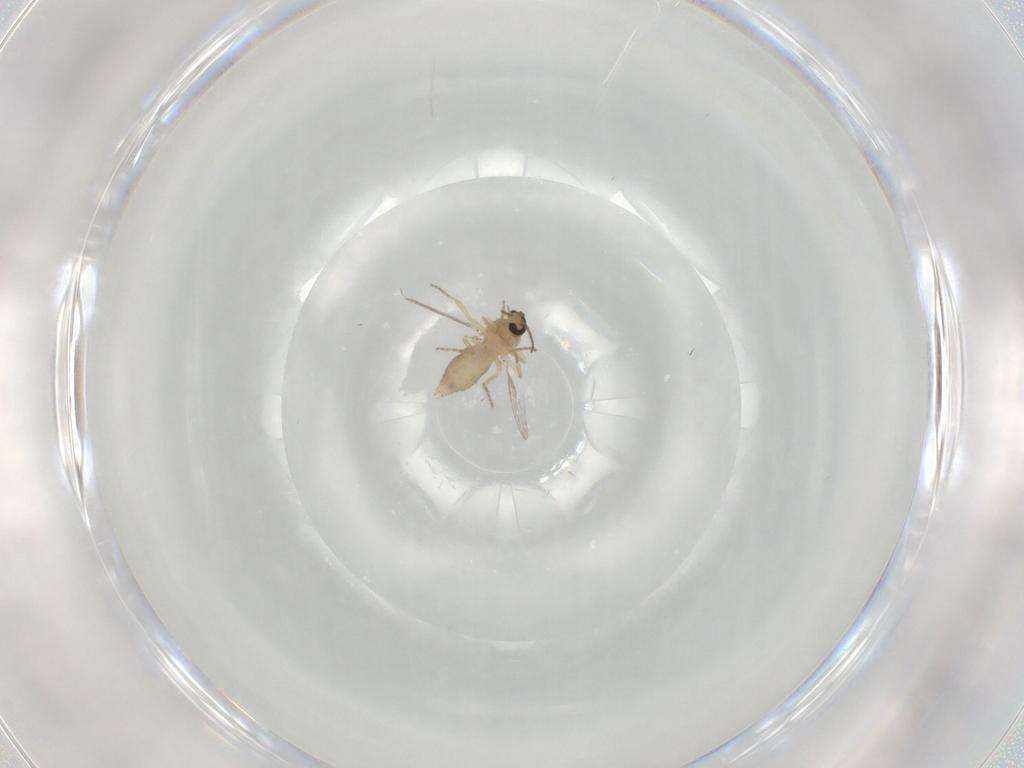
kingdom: Animalia
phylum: Arthropoda
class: Insecta
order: Diptera
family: Ceratopogonidae
